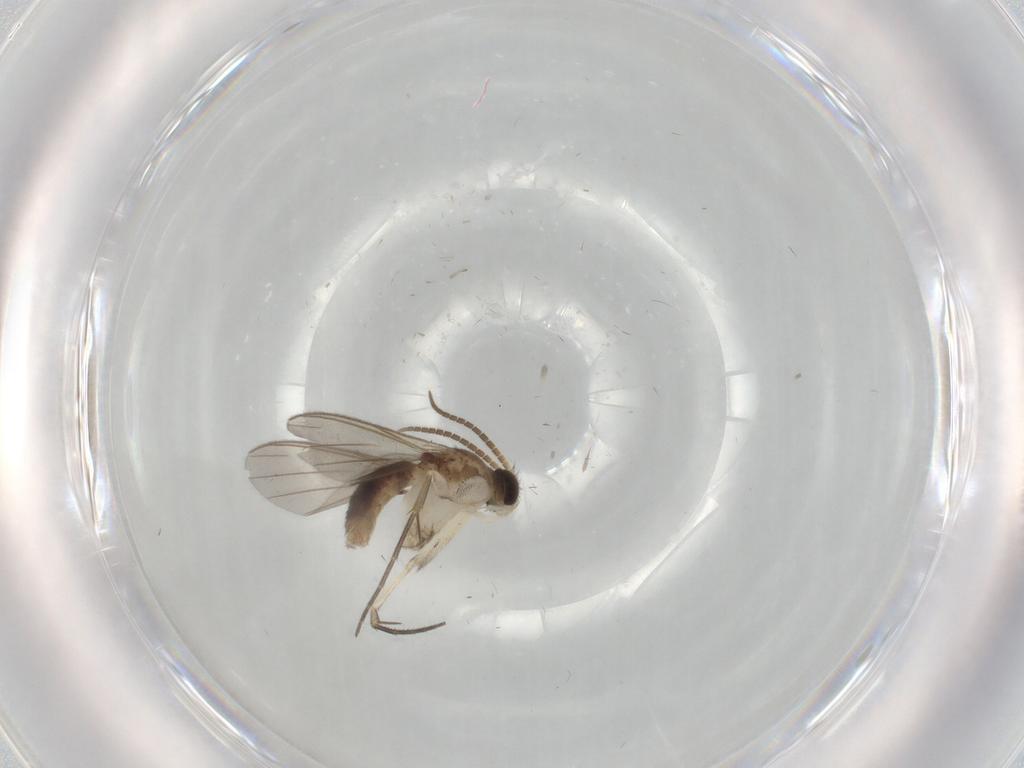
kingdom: Animalia
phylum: Arthropoda
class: Insecta
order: Diptera
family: Mycetophilidae
